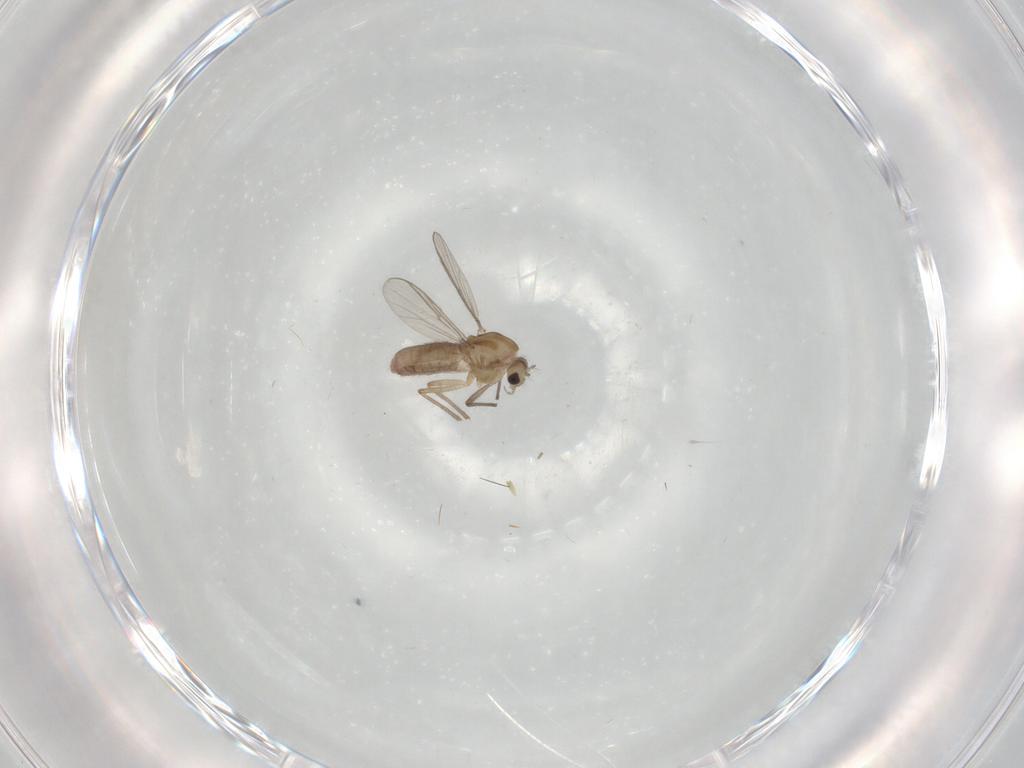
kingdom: Animalia
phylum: Arthropoda
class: Insecta
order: Diptera
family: Chironomidae
